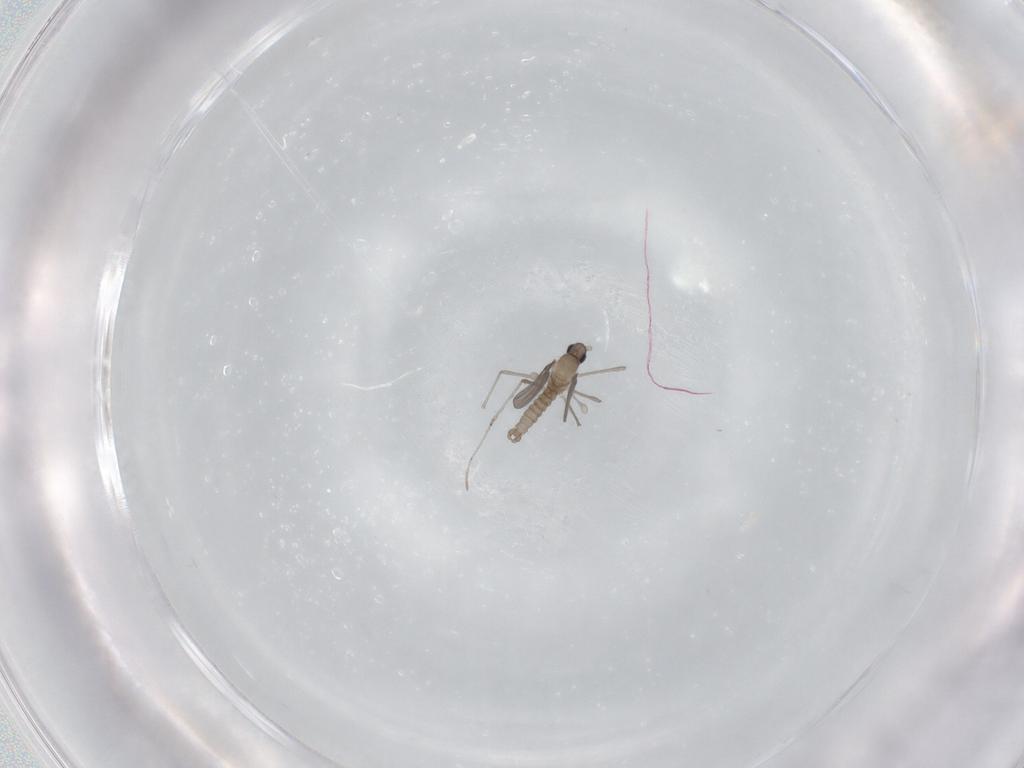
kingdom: Animalia
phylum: Arthropoda
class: Insecta
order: Diptera
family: Cecidomyiidae
